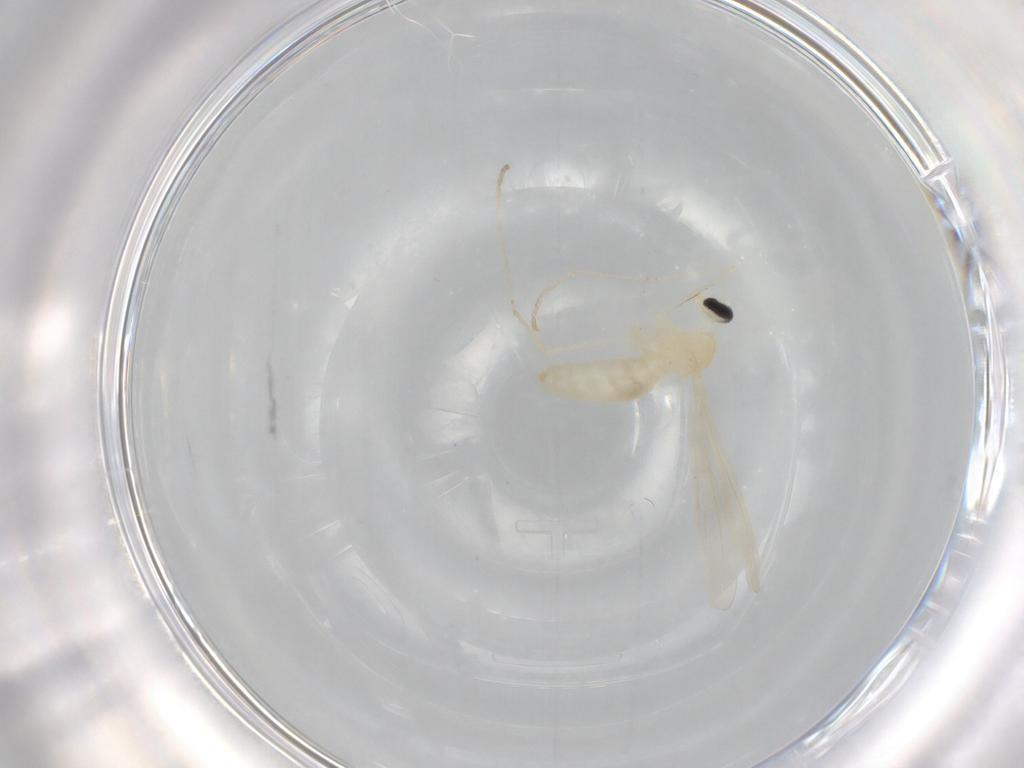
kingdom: Animalia
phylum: Arthropoda
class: Insecta
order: Diptera
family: Cecidomyiidae
